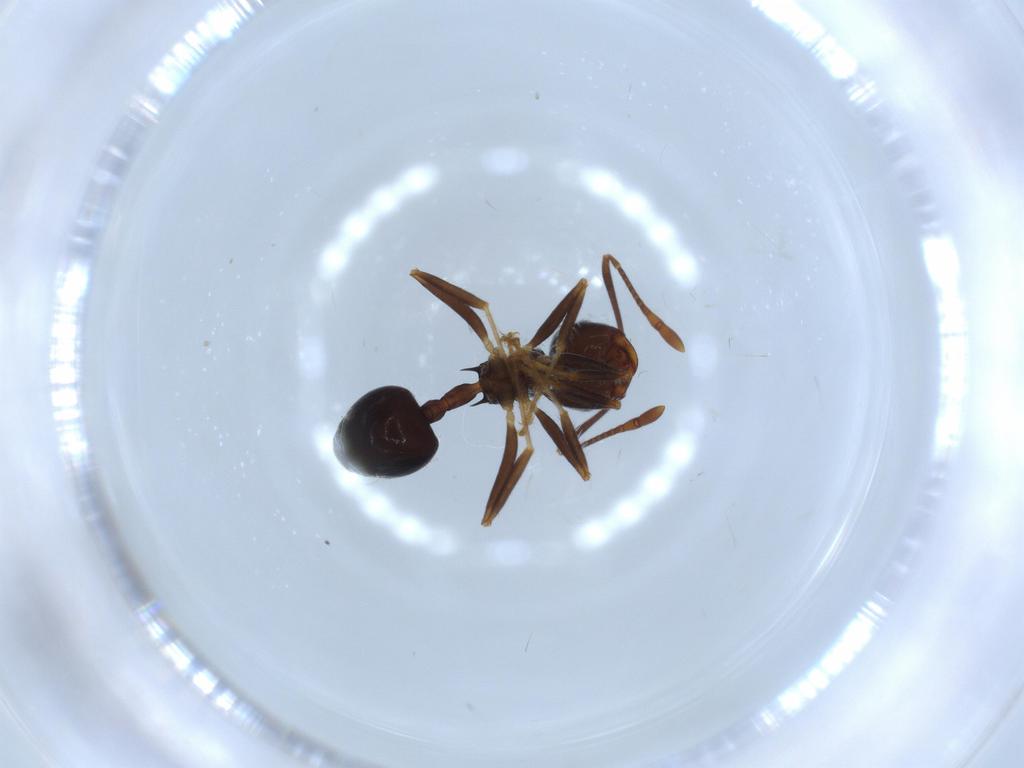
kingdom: Animalia
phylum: Arthropoda
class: Insecta
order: Hymenoptera
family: Formicidae
